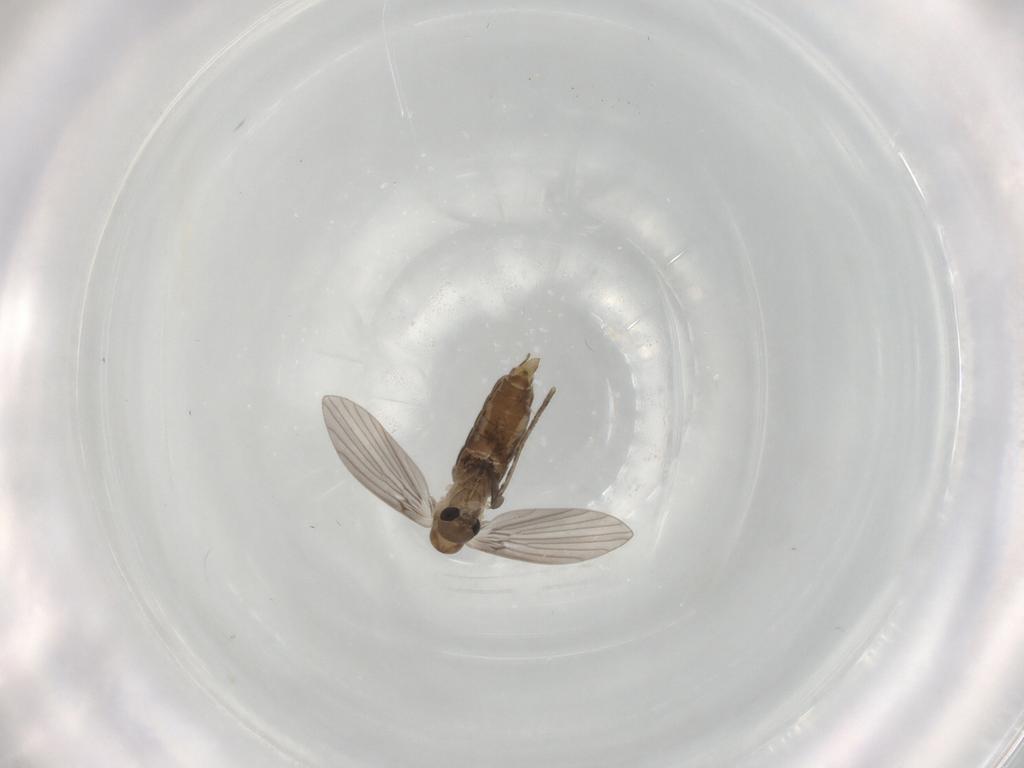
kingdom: Animalia
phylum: Arthropoda
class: Insecta
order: Diptera
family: Psychodidae
